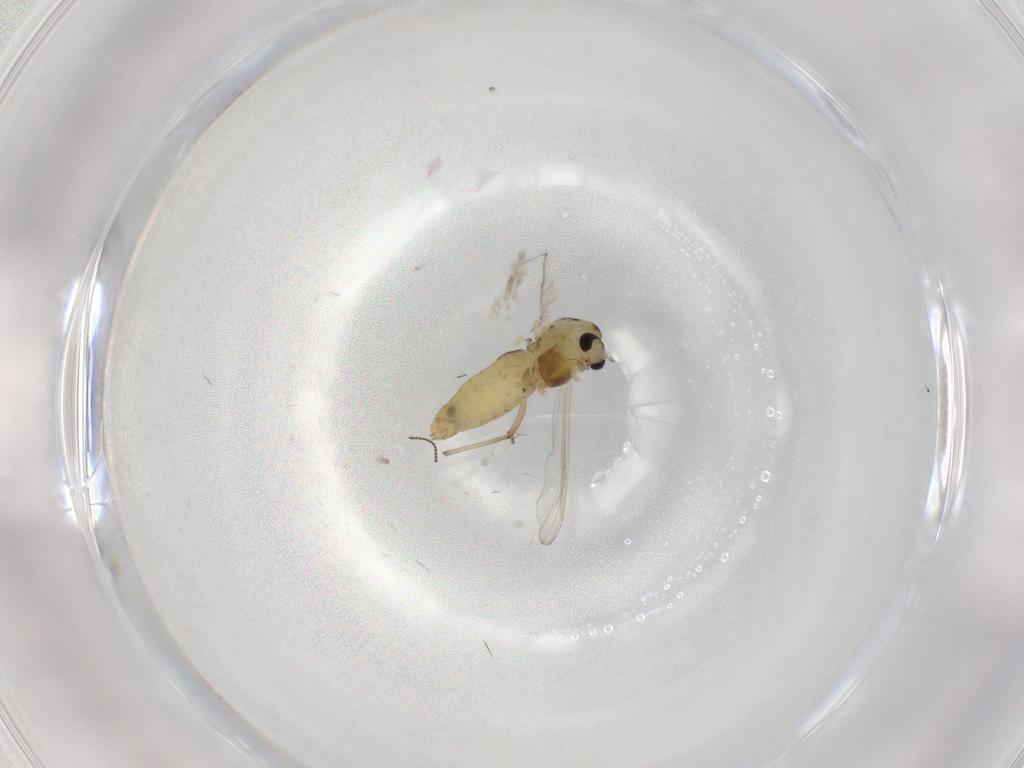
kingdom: Animalia
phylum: Arthropoda
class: Insecta
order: Diptera
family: Chironomidae
